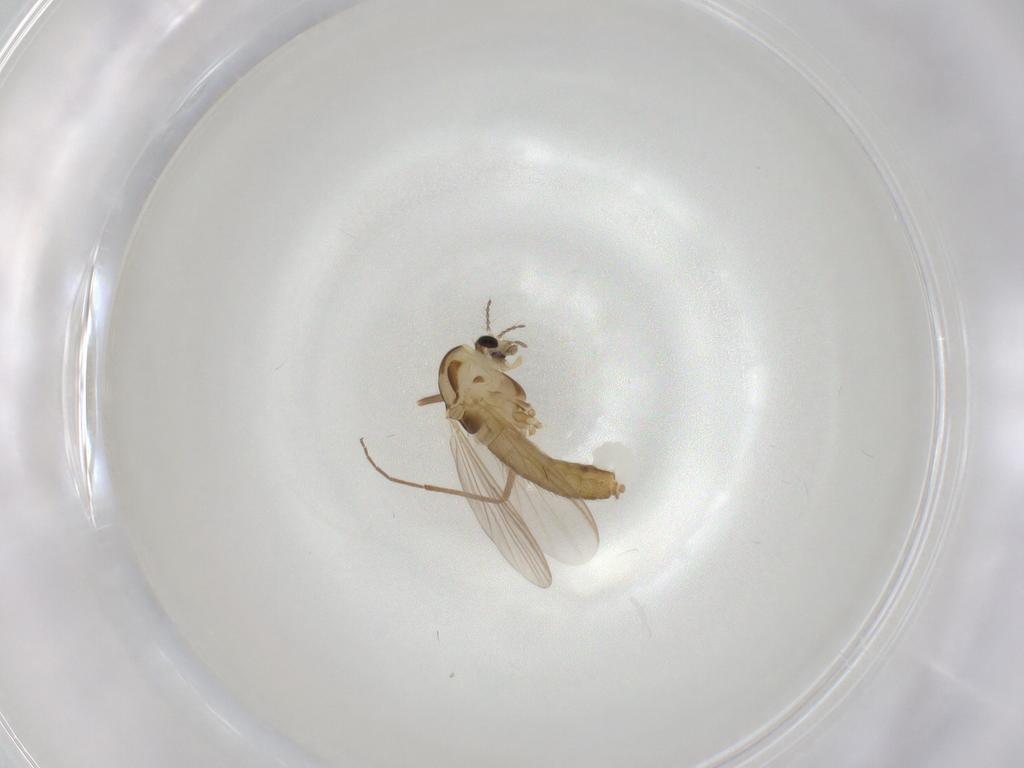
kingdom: Animalia
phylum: Arthropoda
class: Insecta
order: Diptera
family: Chironomidae
